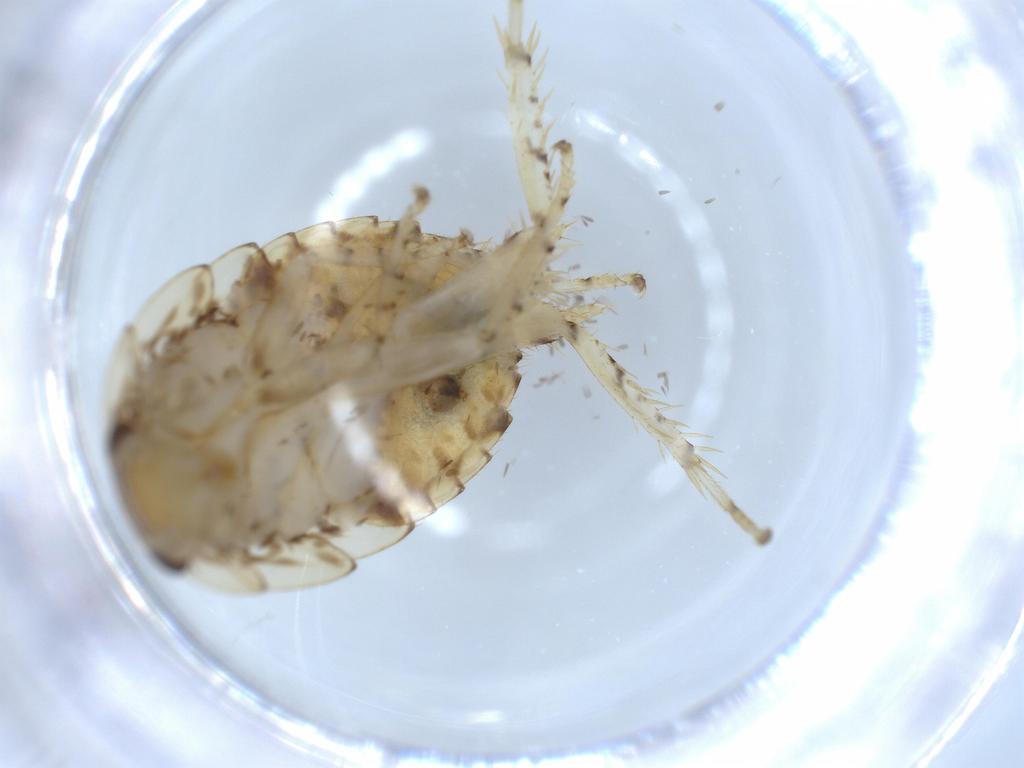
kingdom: Animalia
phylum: Arthropoda
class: Insecta
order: Blattodea
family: Ectobiidae
